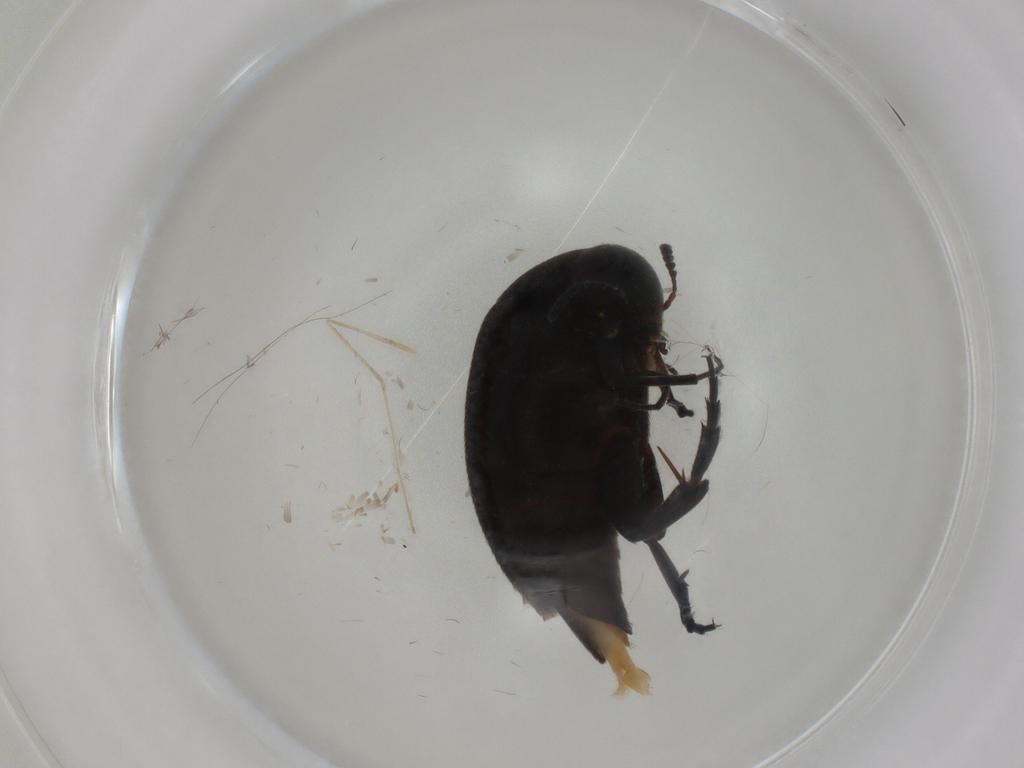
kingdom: Animalia
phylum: Arthropoda
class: Insecta
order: Coleoptera
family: Mordellidae
